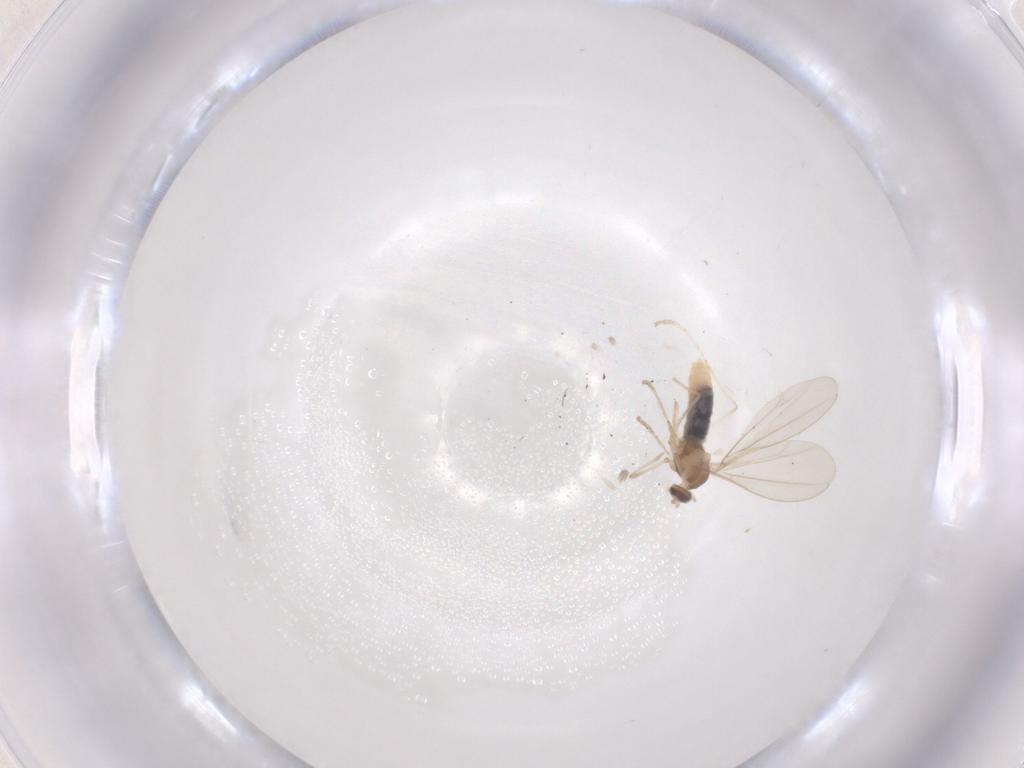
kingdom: Animalia
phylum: Arthropoda
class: Insecta
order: Diptera
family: Cecidomyiidae
